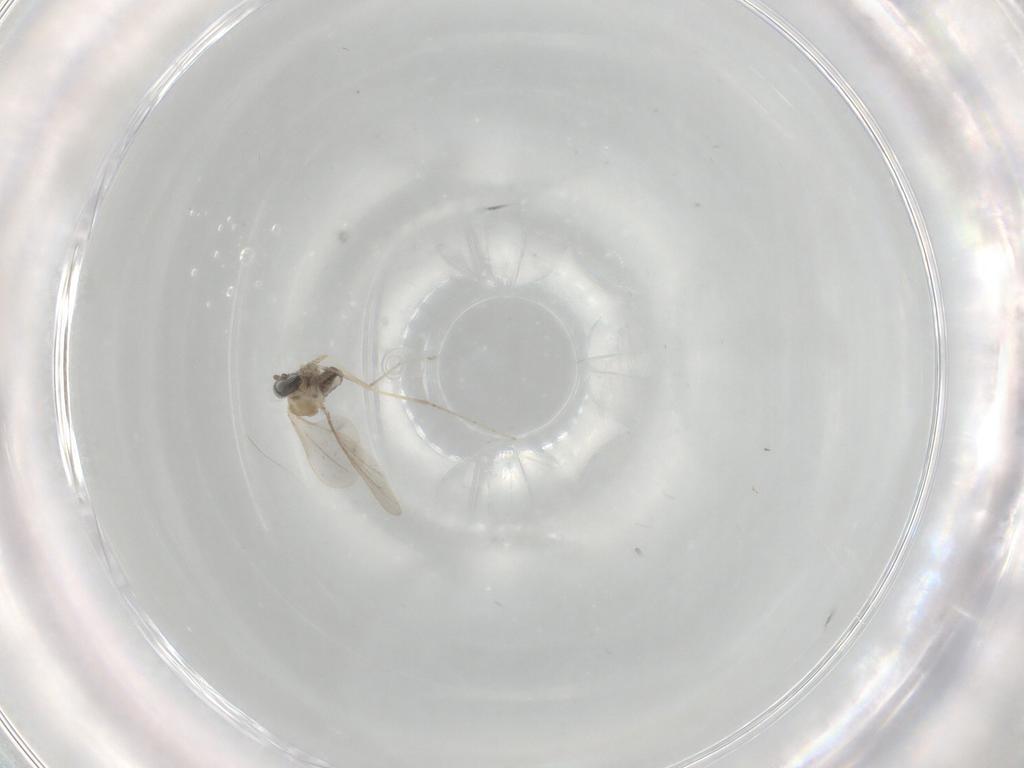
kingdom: Animalia
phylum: Arthropoda
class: Insecta
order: Diptera
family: Cecidomyiidae
